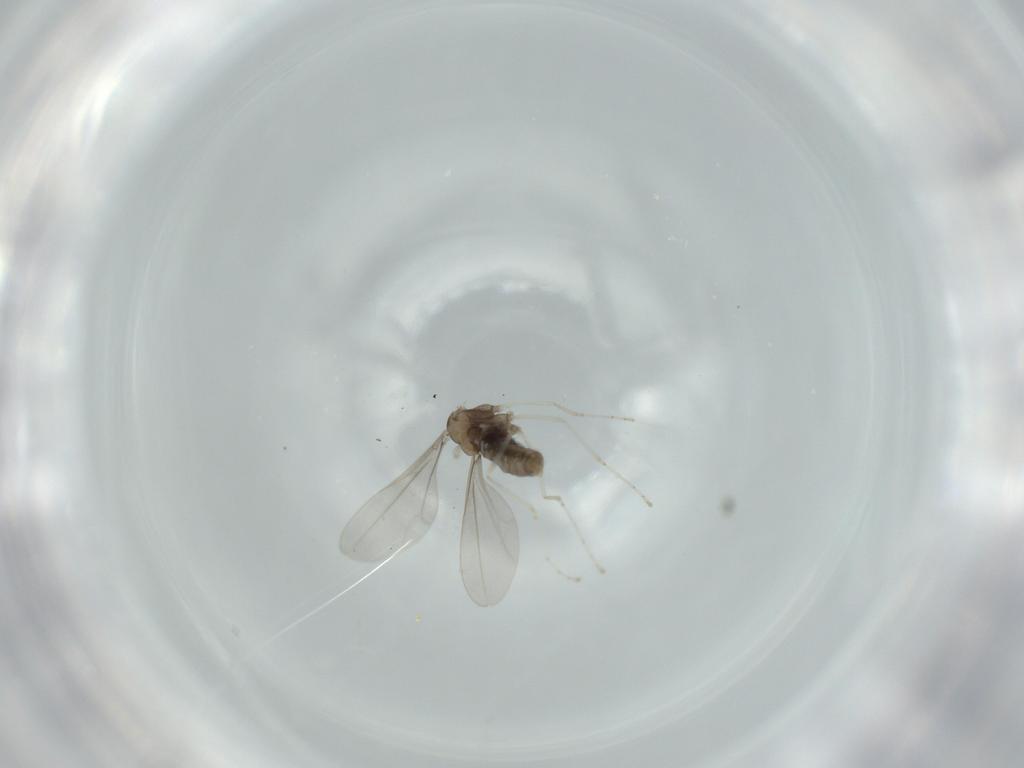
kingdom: Animalia
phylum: Arthropoda
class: Insecta
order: Diptera
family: Cecidomyiidae
